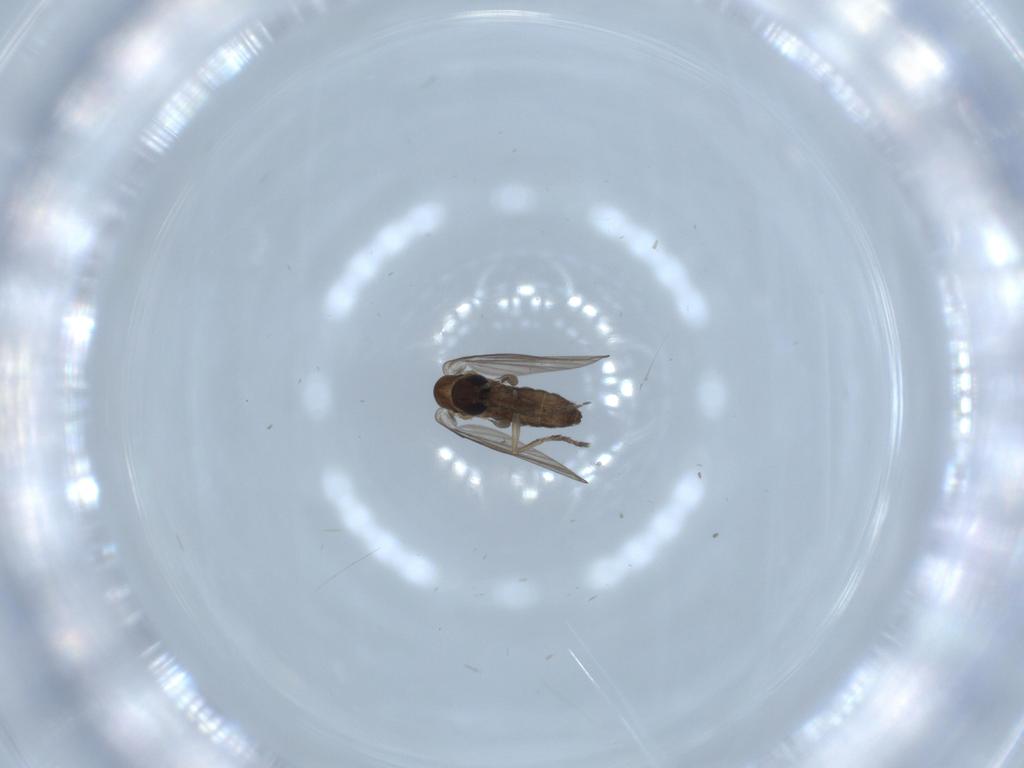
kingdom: Animalia
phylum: Arthropoda
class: Insecta
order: Diptera
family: Psychodidae
